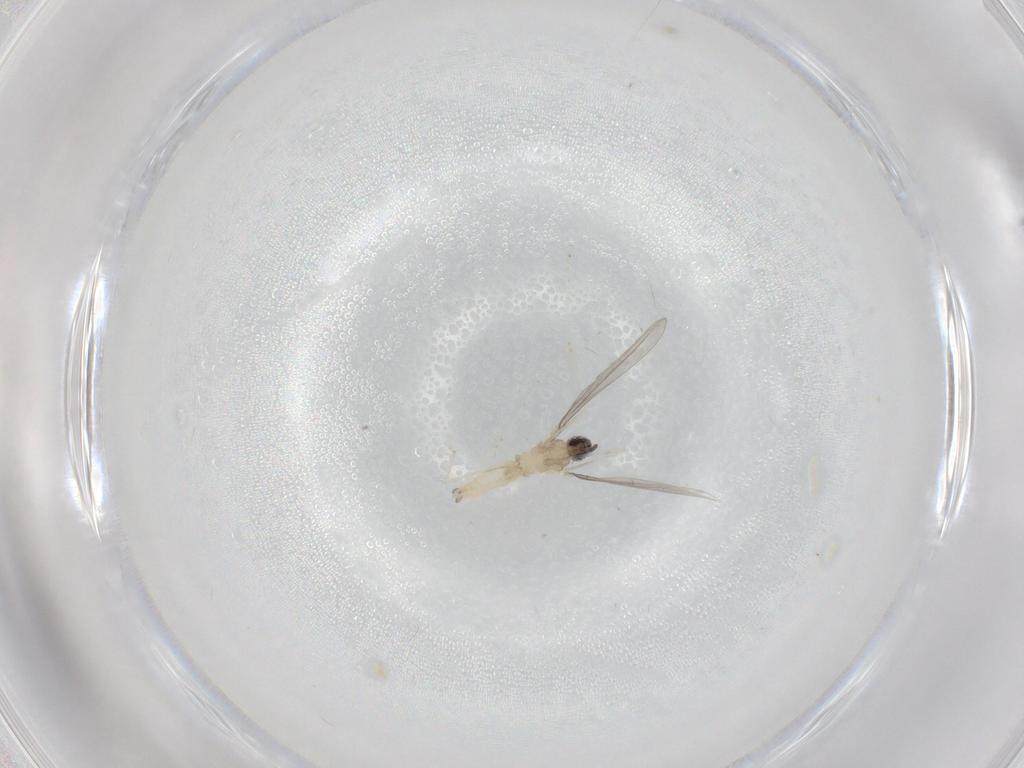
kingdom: Animalia
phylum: Arthropoda
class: Insecta
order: Diptera
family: Cecidomyiidae
